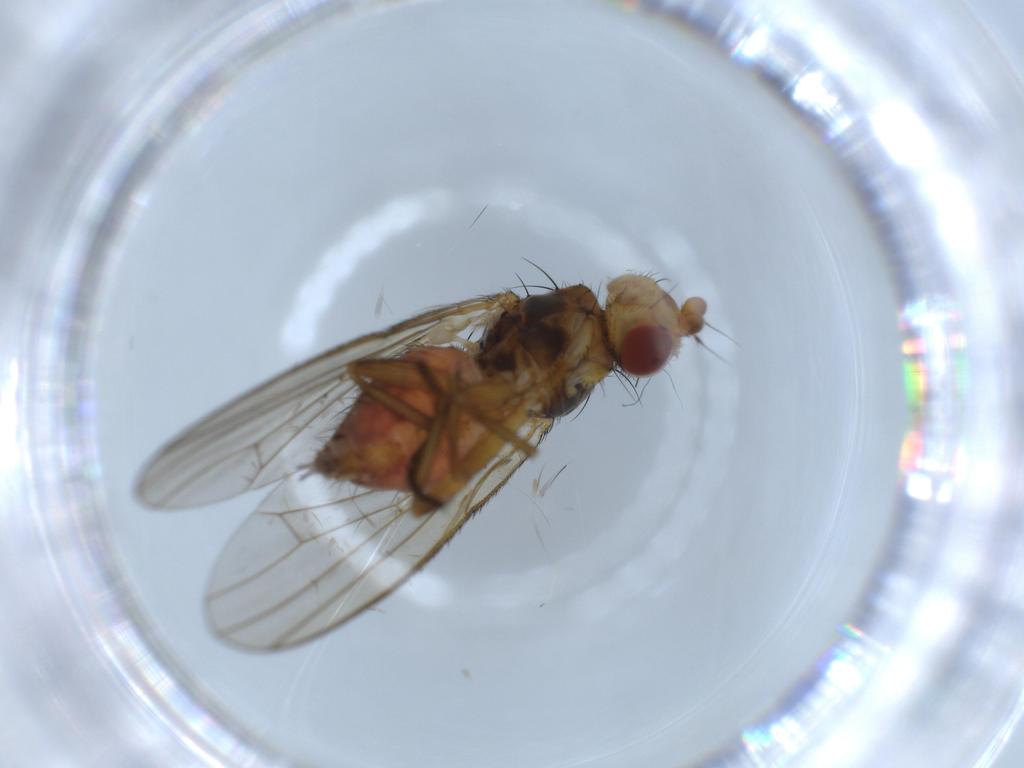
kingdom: Animalia
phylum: Arthropoda
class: Insecta
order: Diptera
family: Heleomyzidae
